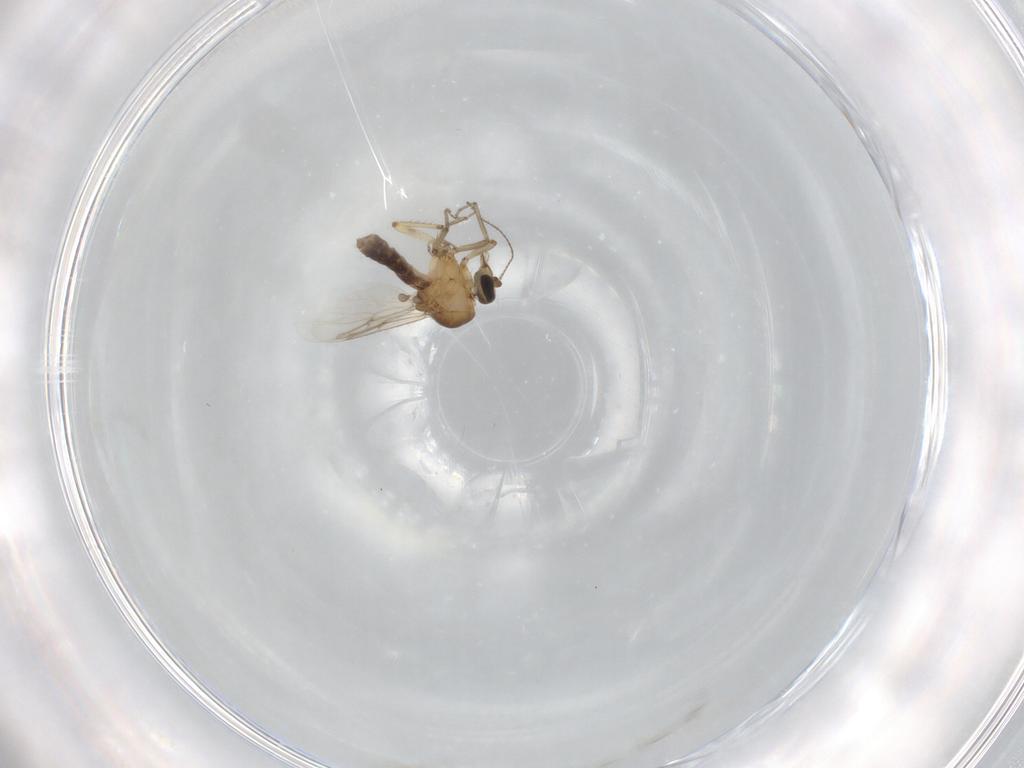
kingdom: Animalia
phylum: Arthropoda
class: Insecta
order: Diptera
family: Ceratopogonidae
